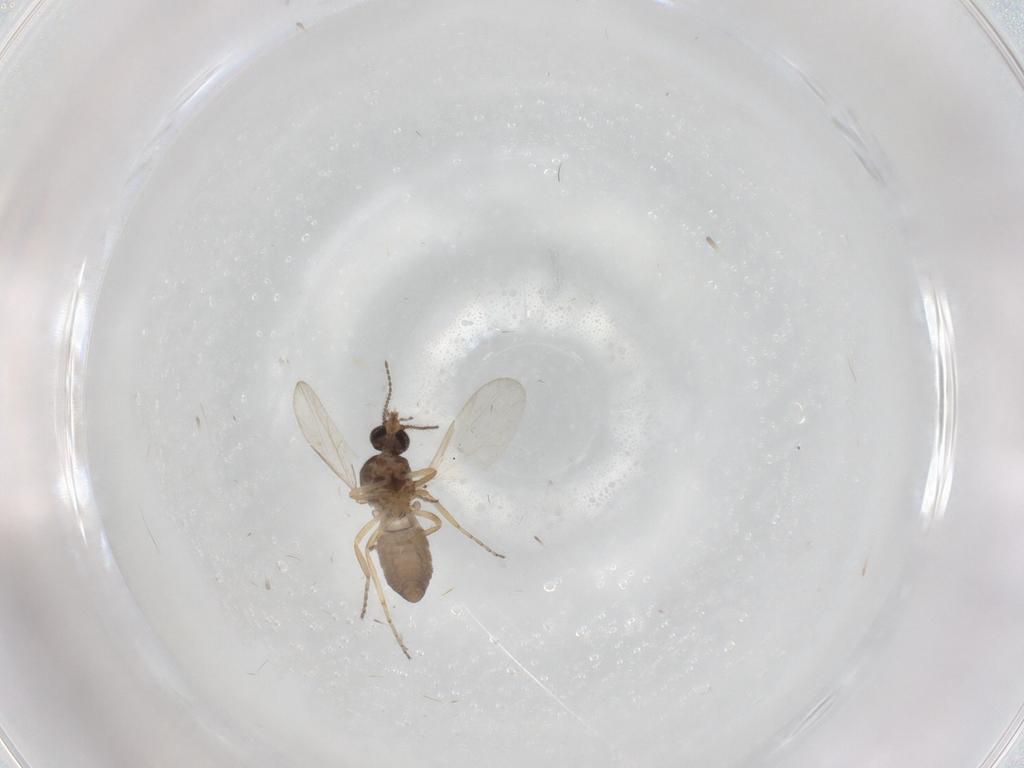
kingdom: Animalia
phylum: Arthropoda
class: Insecta
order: Diptera
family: Ceratopogonidae
